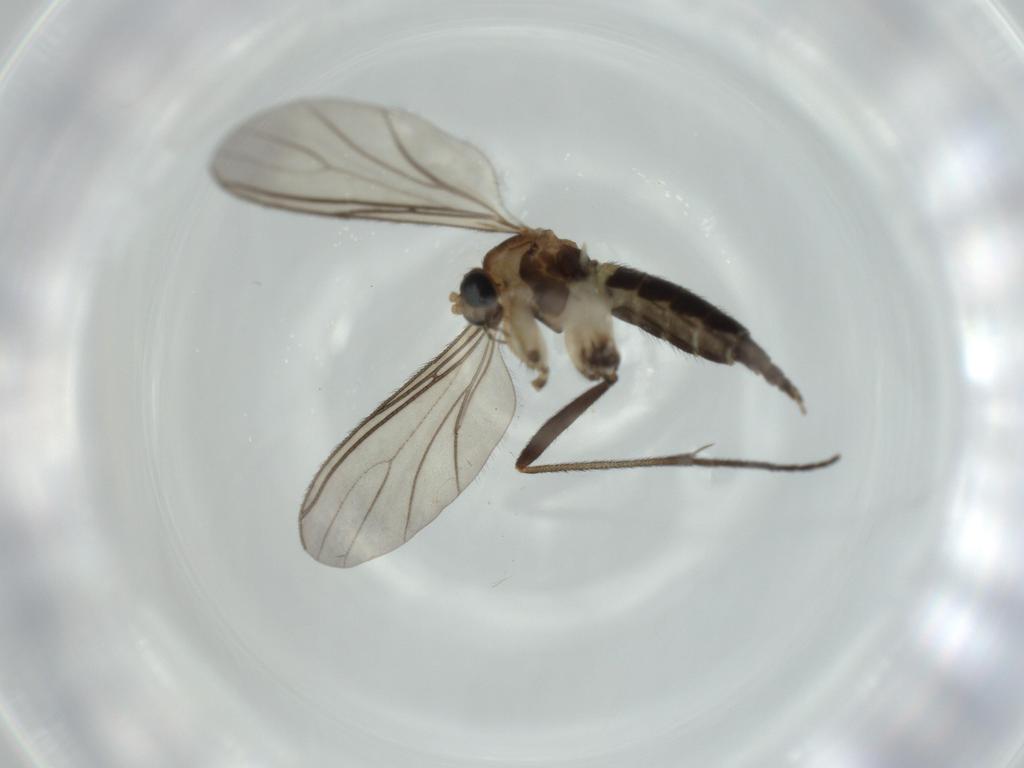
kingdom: Animalia
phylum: Arthropoda
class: Insecta
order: Diptera
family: Sciaridae
